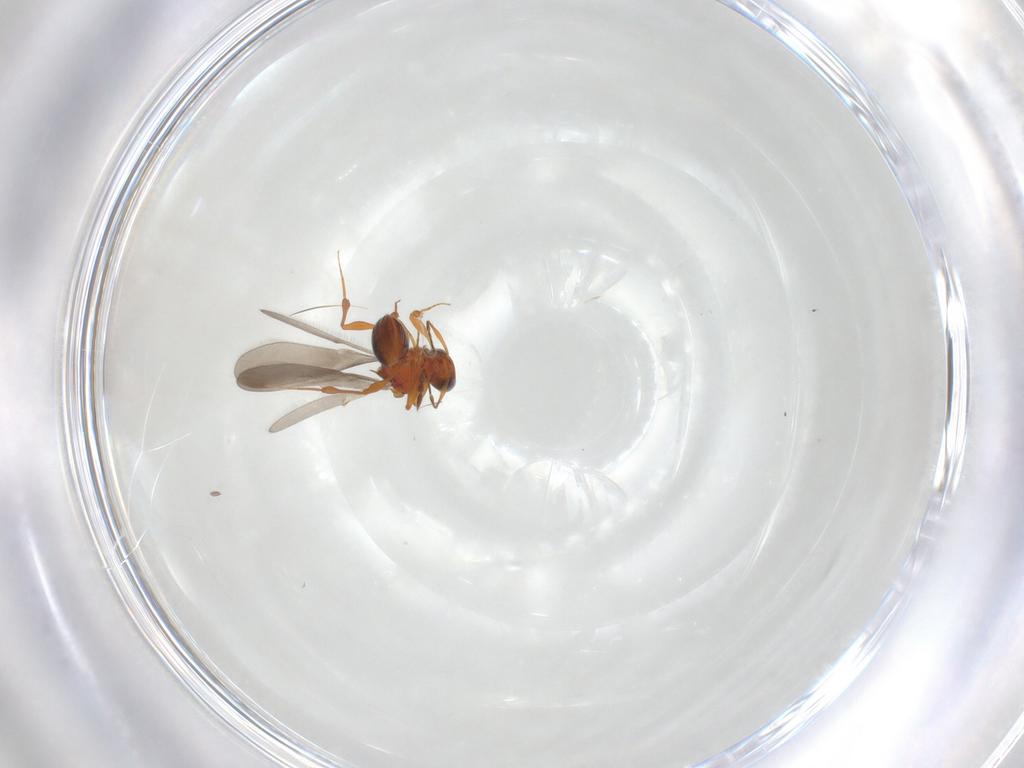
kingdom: Animalia
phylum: Arthropoda
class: Insecta
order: Hymenoptera
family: Platygastridae
